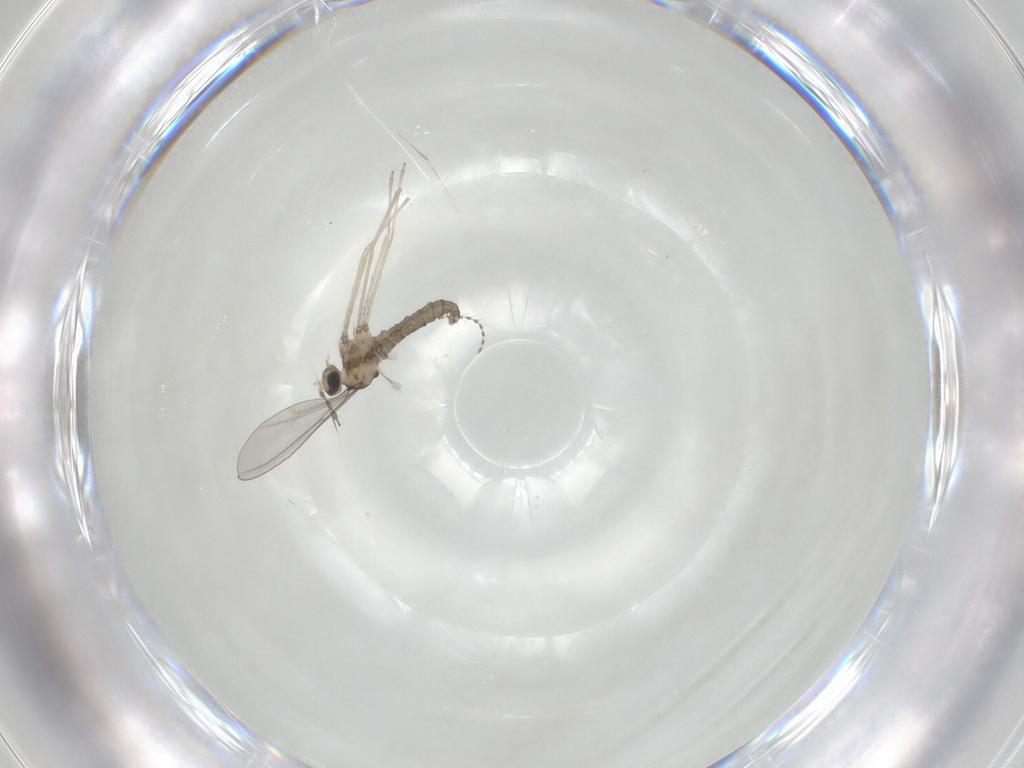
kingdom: Animalia
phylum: Arthropoda
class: Insecta
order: Diptera
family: Cecidomyiidae
